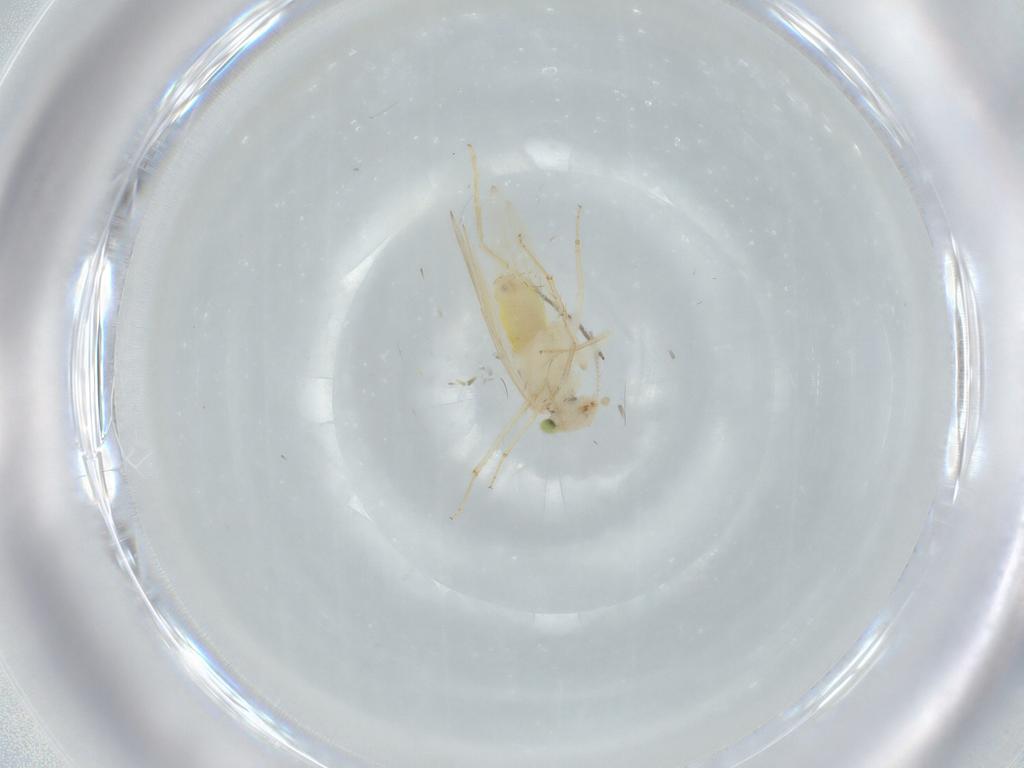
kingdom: Animalia
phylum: Arthropoda
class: Insecta
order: Psocodea
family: Lepidopsocidae
